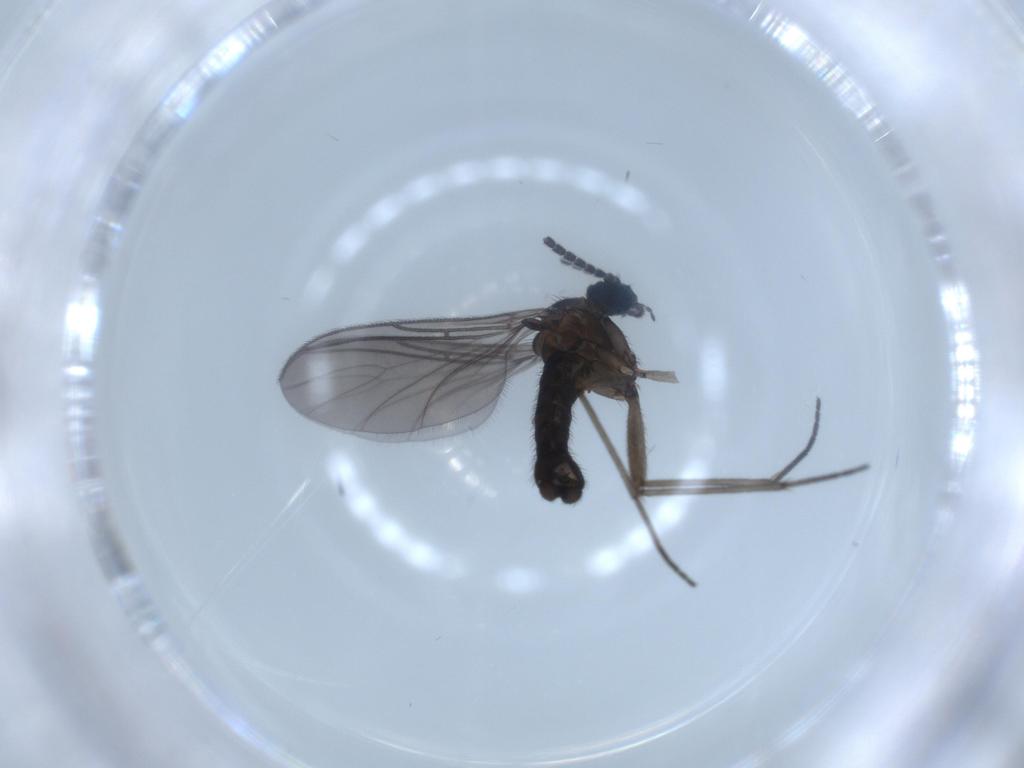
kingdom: Animalia
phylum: Arthropoda
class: Insecta
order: Diptera
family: Sciaridae
